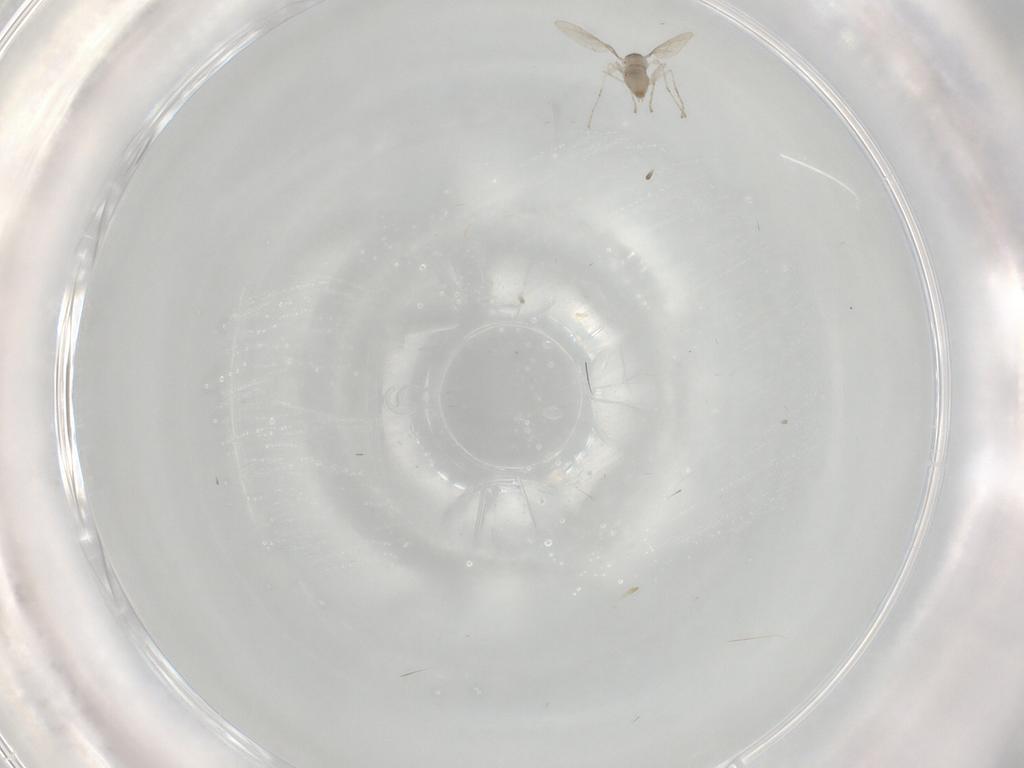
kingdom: Animalia
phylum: Arthropoda
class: Insecta
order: Diptera
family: Cecidomyiidae
